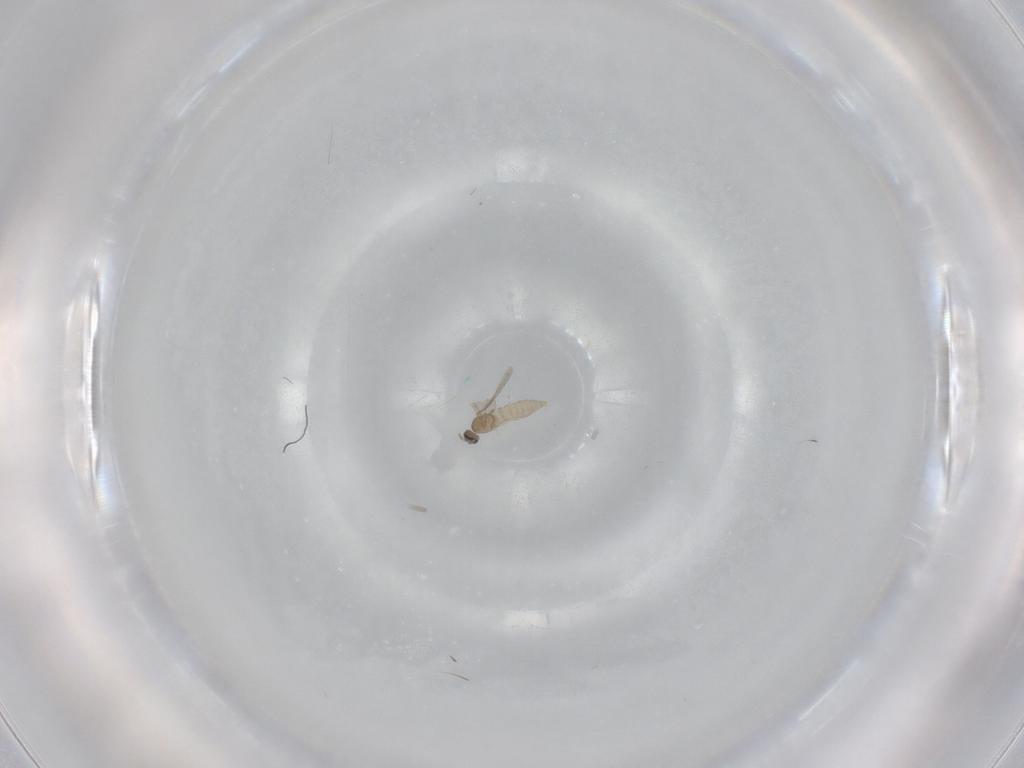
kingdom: Animalia
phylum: Arthropoda
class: Insecta
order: Diptera
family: Cecidomyiidae
